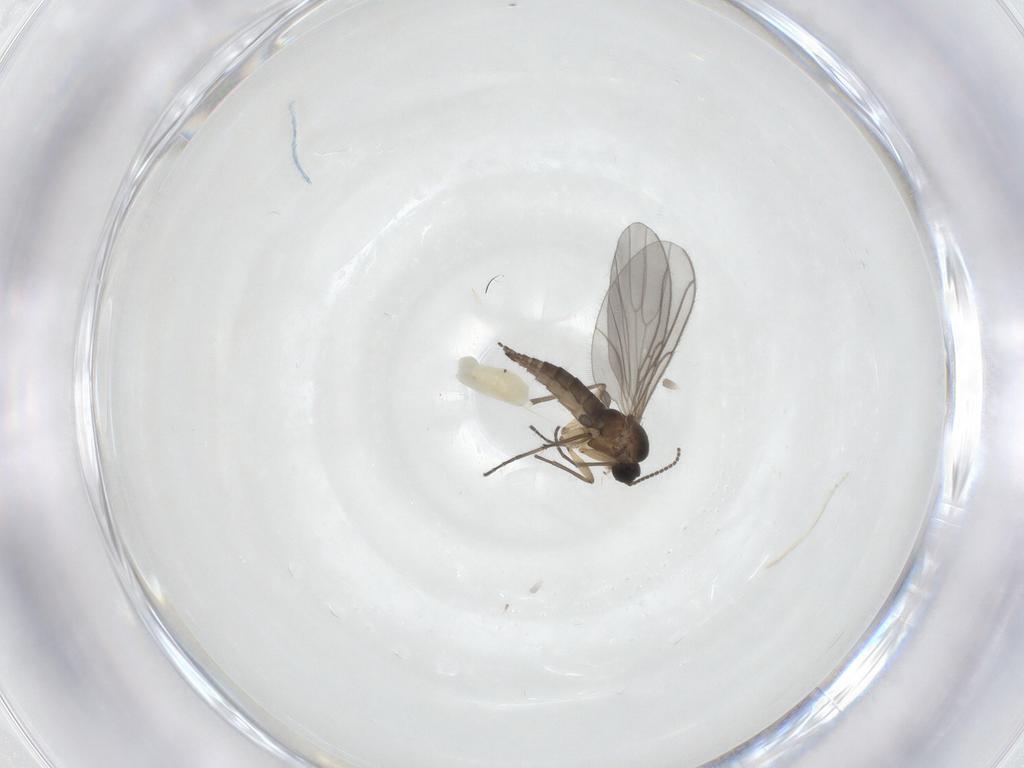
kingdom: Animalia
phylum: Arthropoda
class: Insecta
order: Diptera
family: Sciaridae
